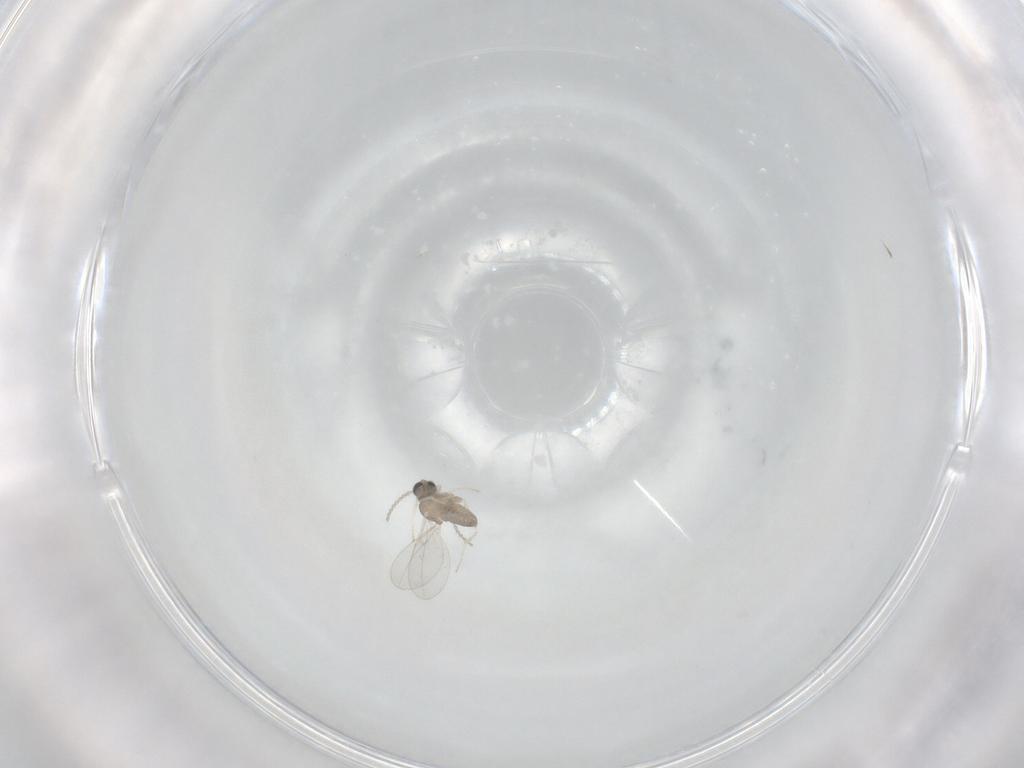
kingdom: Animalia
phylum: Arthropoda
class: Insecta
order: Diptera
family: Cecidomyiidae
